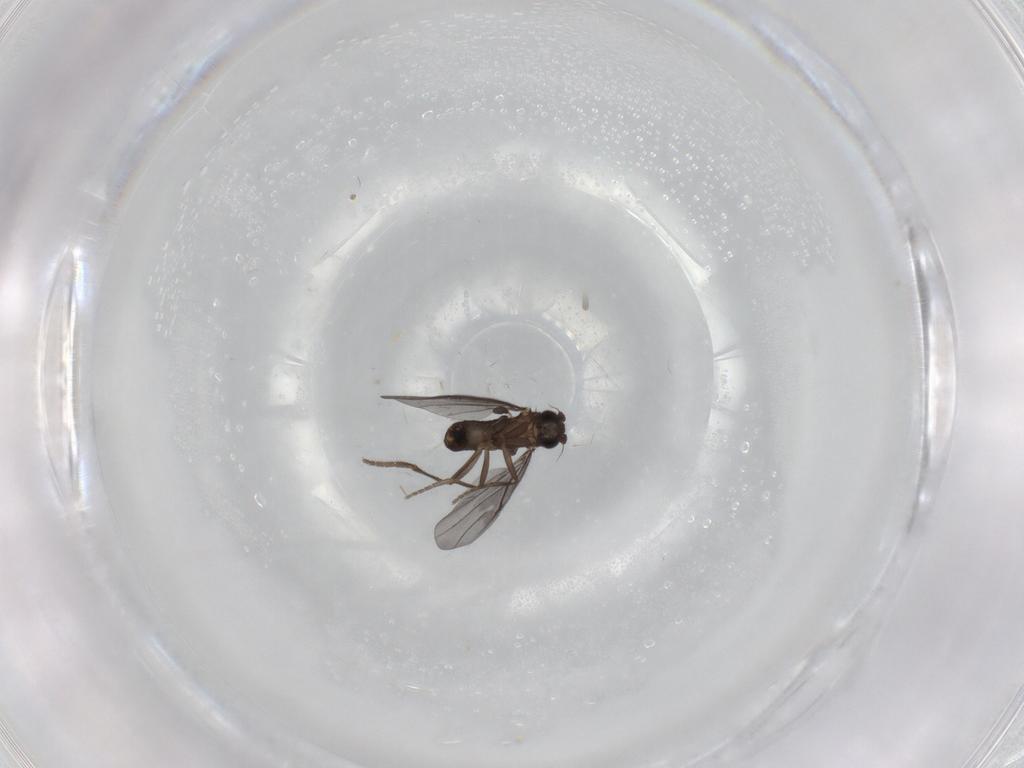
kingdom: Animalia
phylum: Arthropoda
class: Insecta
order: Diptera
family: Phoridae
